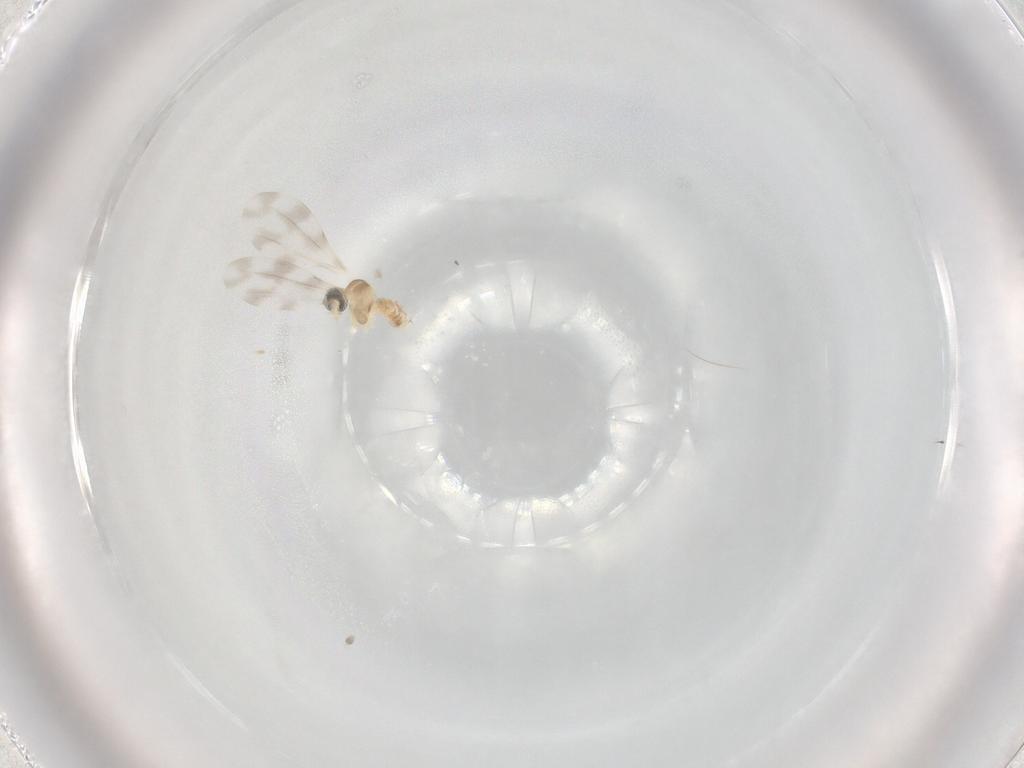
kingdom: Animalia
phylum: Arthropoda
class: Insecta
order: Diptera
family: Cecidomyiidae
